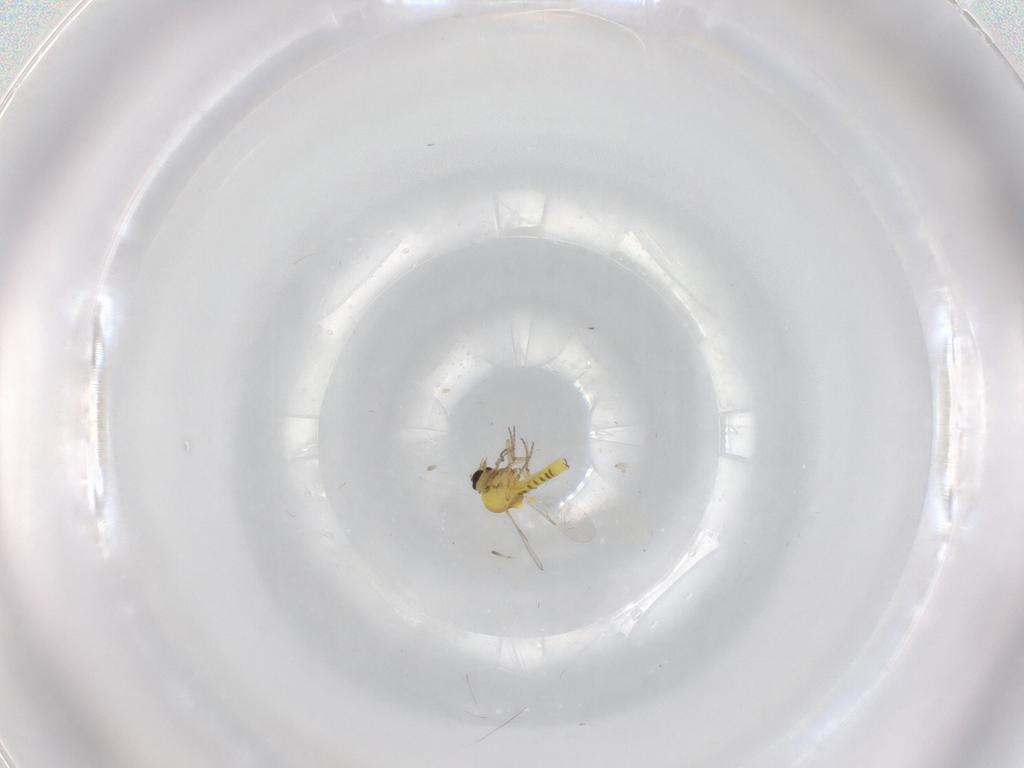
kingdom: Animalia
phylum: Arthropoda
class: Insecta
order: Diptera
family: Ceratopogonidae
